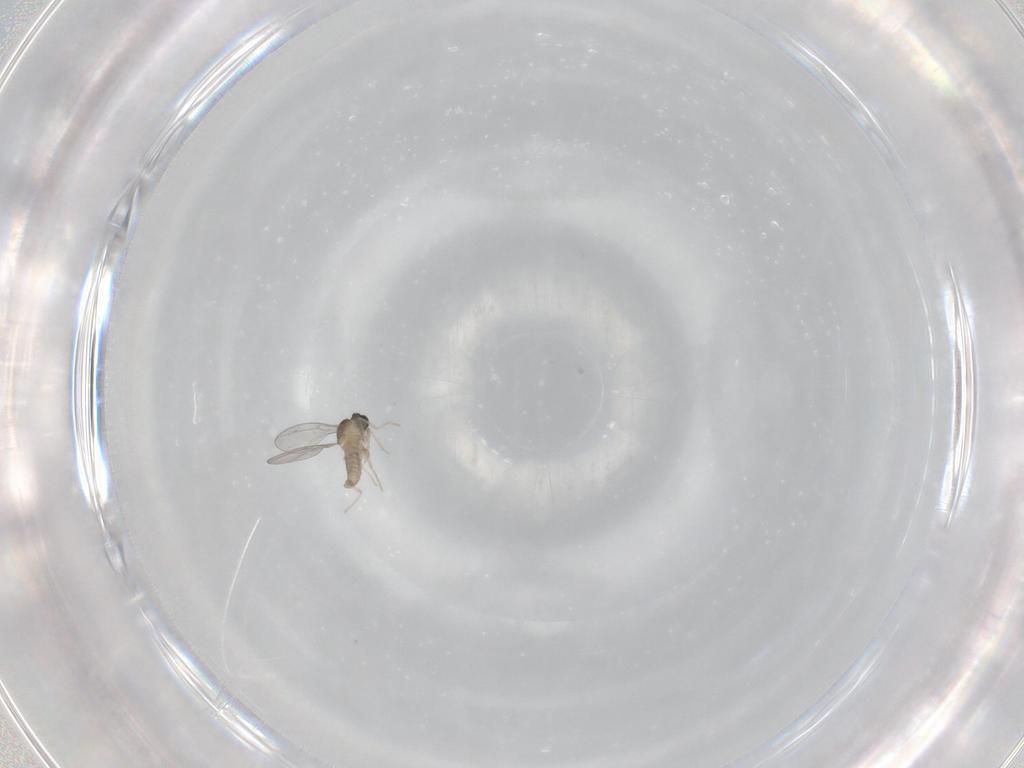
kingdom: Animalia
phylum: Arthropoda
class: Insecta
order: Diptera
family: Cecidomyiidae
